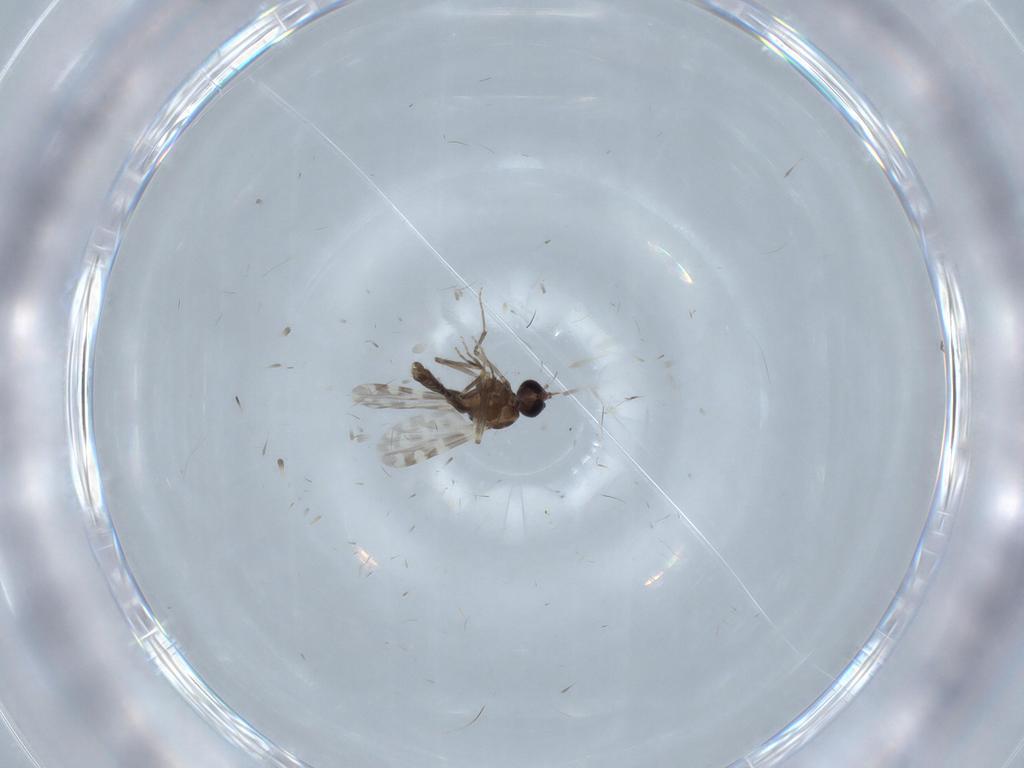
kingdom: Animalia
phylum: Arthropoda
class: Insecta
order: Diptera
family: Ceratopogonidae
